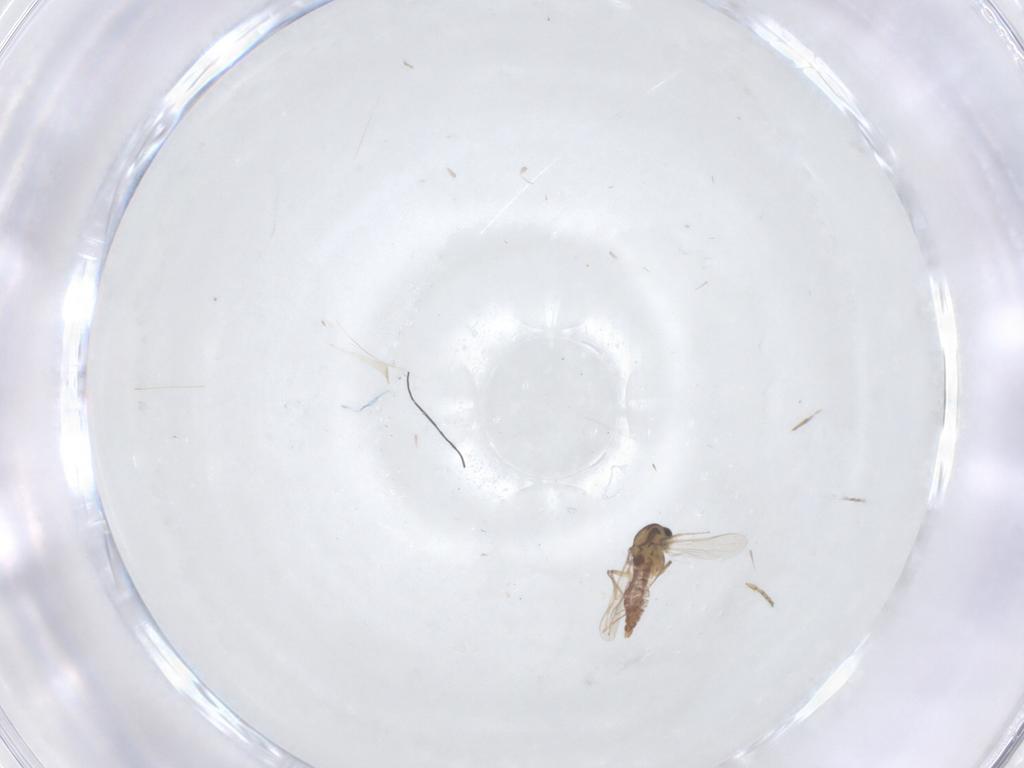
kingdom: Animalia
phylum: Arthropoda
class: Insecta
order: Diptera
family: Chironomidae
